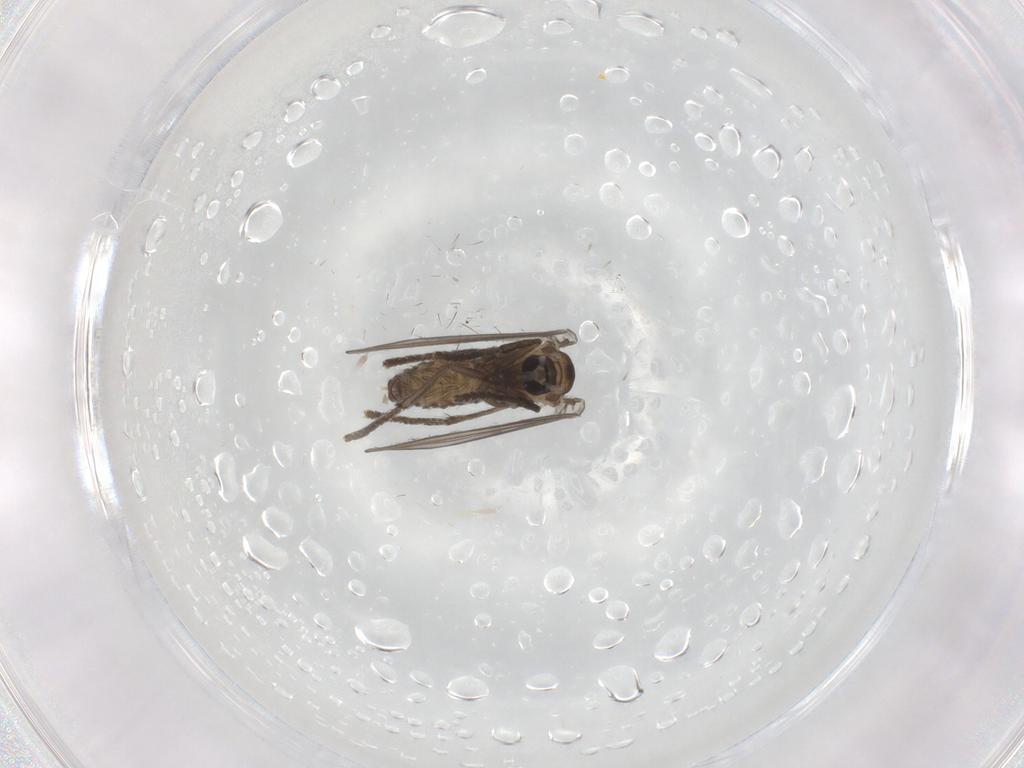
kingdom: Animalia
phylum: Arthropoda
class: Insecta
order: Diptera
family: Psychodidae
